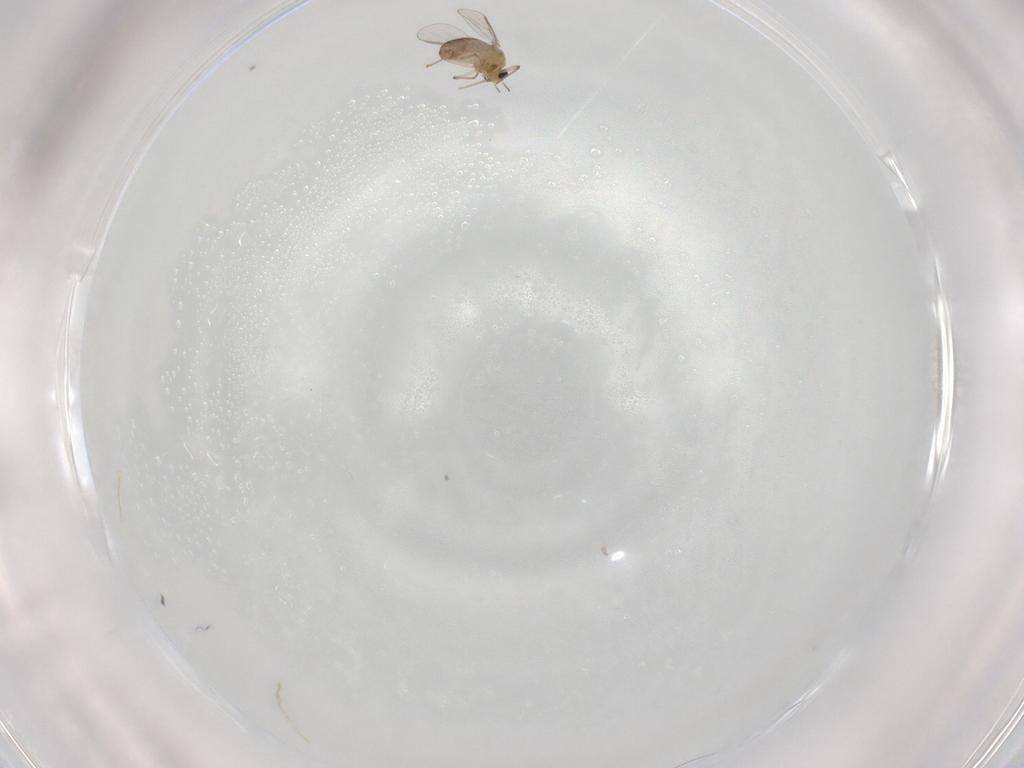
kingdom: Animalia
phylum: Arthropoda
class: Insecta
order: Diptera
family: Chironomidae
